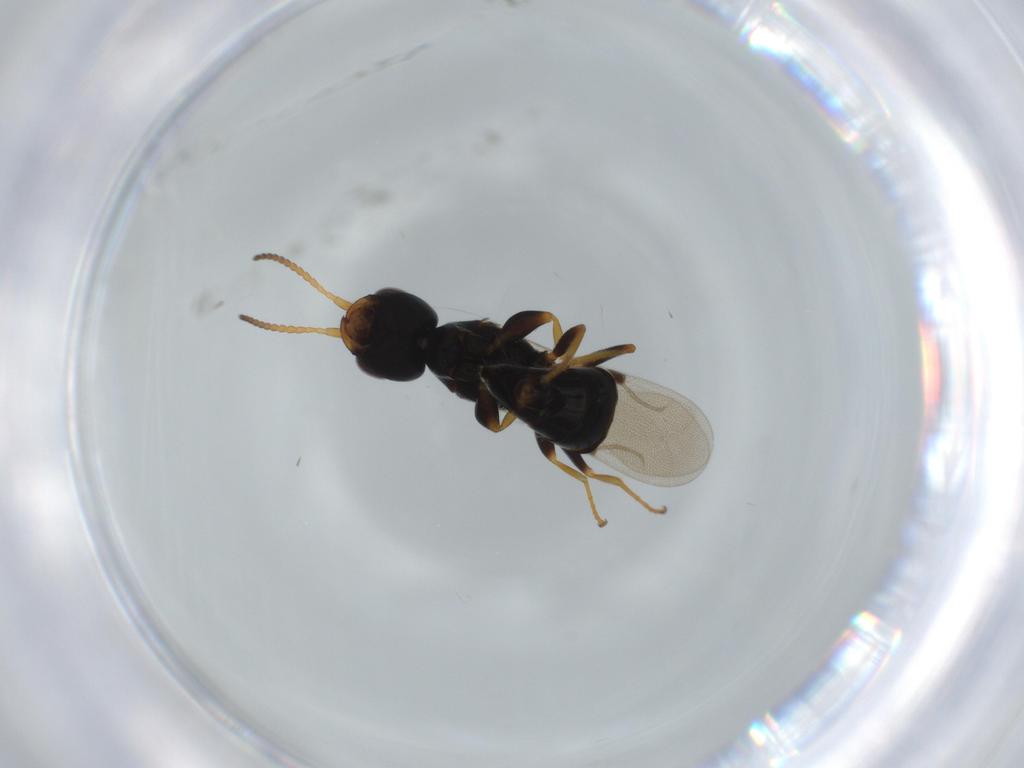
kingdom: Animalia
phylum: Arthropoda
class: Insecta
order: Hymenoptera
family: Bethylidae
